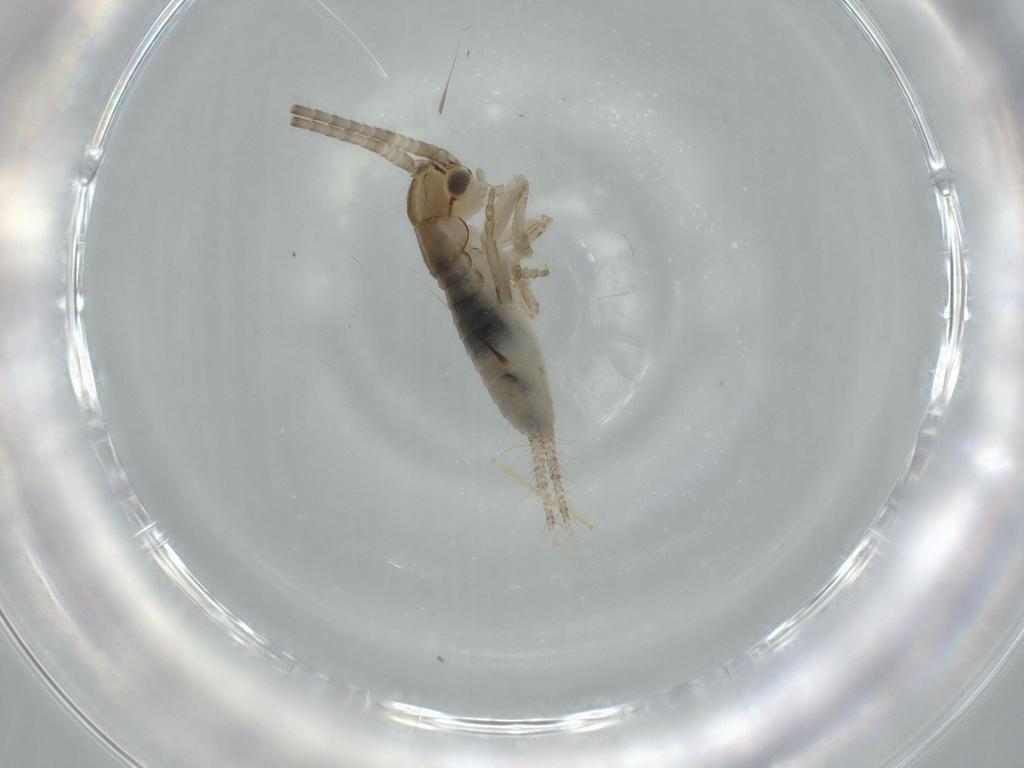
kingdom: Animalia
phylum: Arthropoda
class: Insecta
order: Orthoptera
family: Gryllidae
